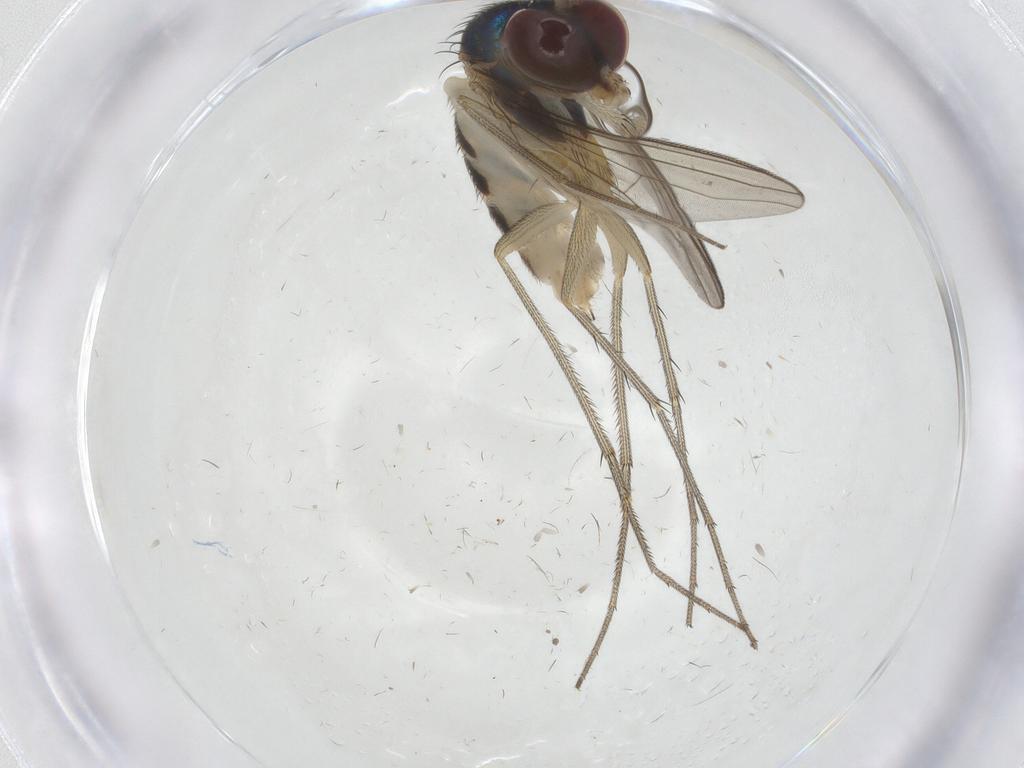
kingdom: Animalia
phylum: Arthropoda
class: Insecta
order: Diptera
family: Dolichopodidae
